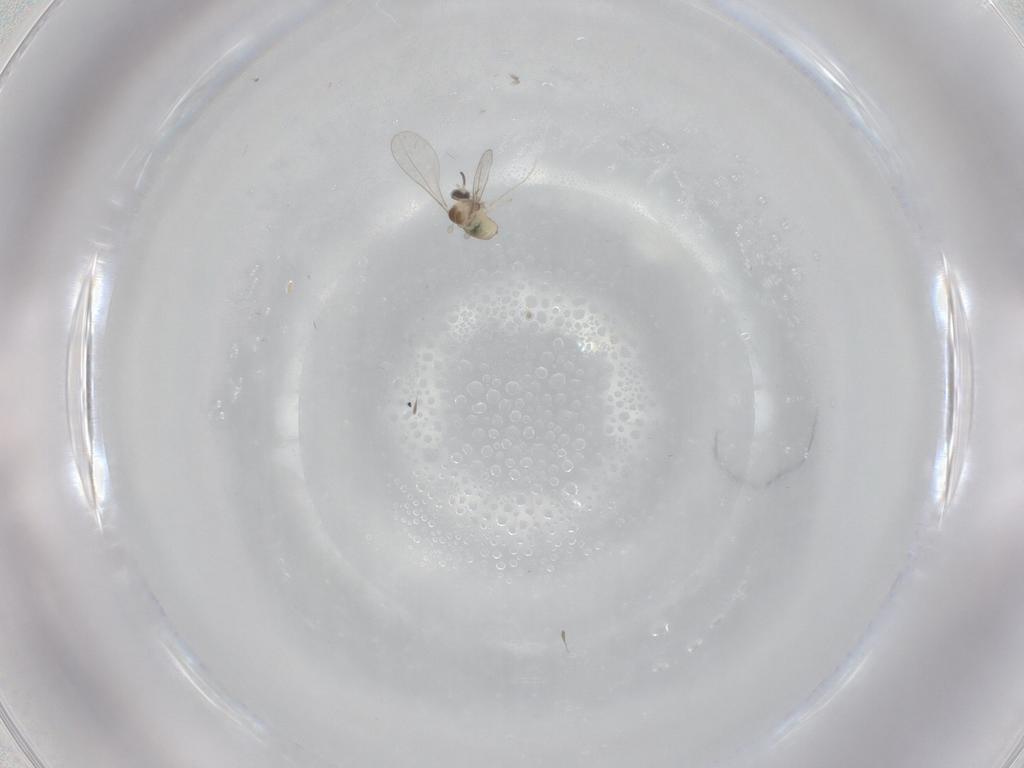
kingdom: Animalia
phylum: Arthropoda
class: Insecta
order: Diptera
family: Cecidomyiidae
